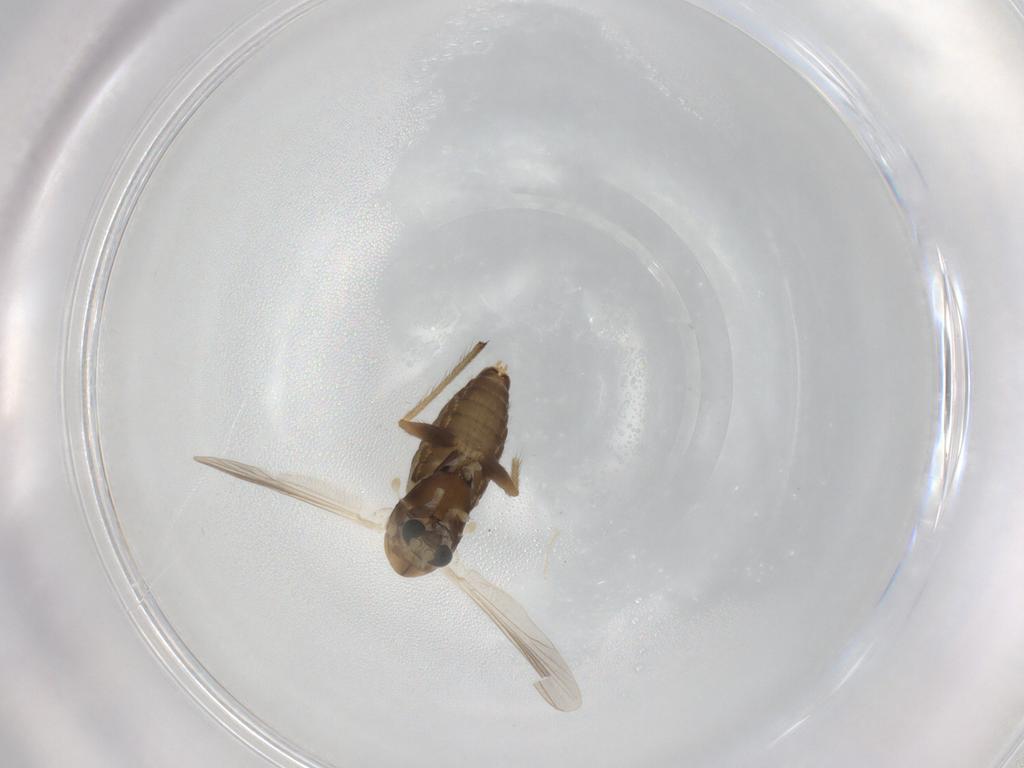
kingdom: Animalia
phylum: Arthropoda
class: Insecta
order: Diptera
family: Chironomidae
